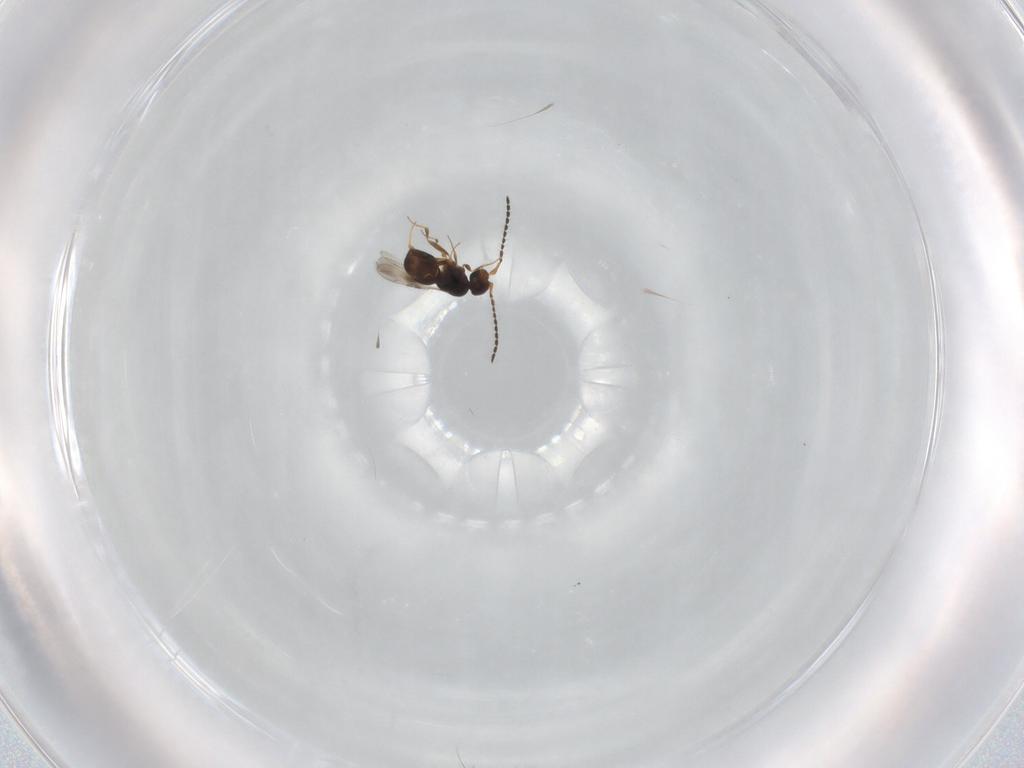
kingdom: Animalia
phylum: Arthropoda
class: Insecta
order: Hymenoptera
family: Ceraphronidae
